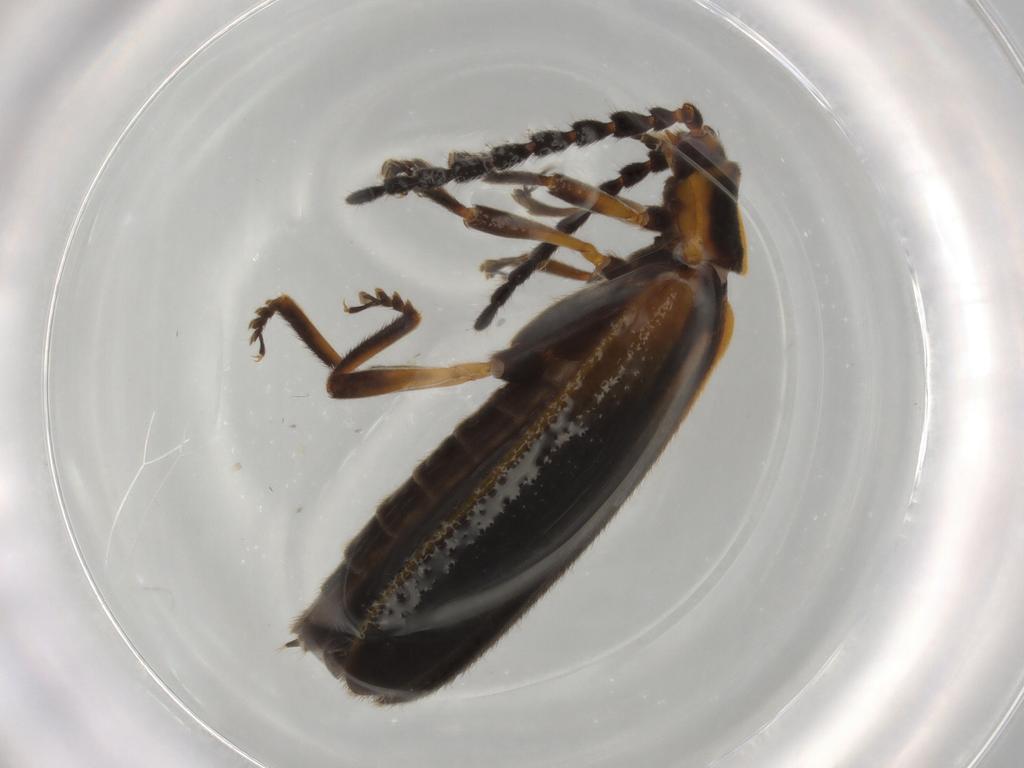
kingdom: Animalia
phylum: Arthropoda
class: Insecta
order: Coleoptera
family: Lycidae
